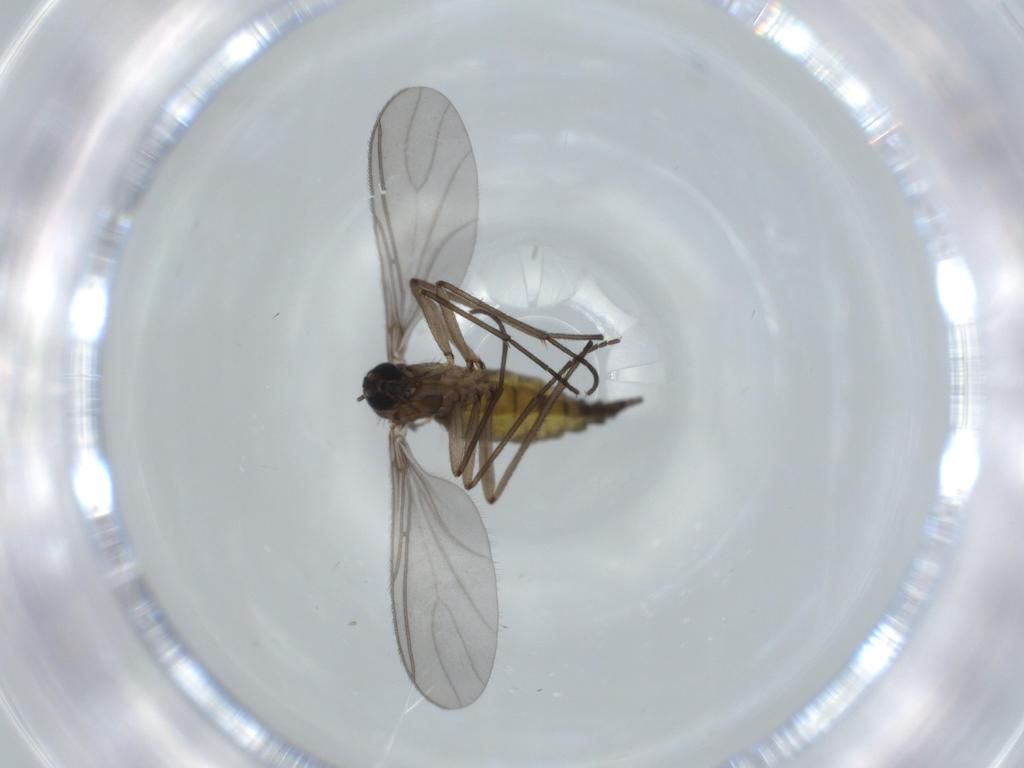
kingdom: Animalia
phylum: Arthropoda
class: Insecta
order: Diptera
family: Sciaridae
